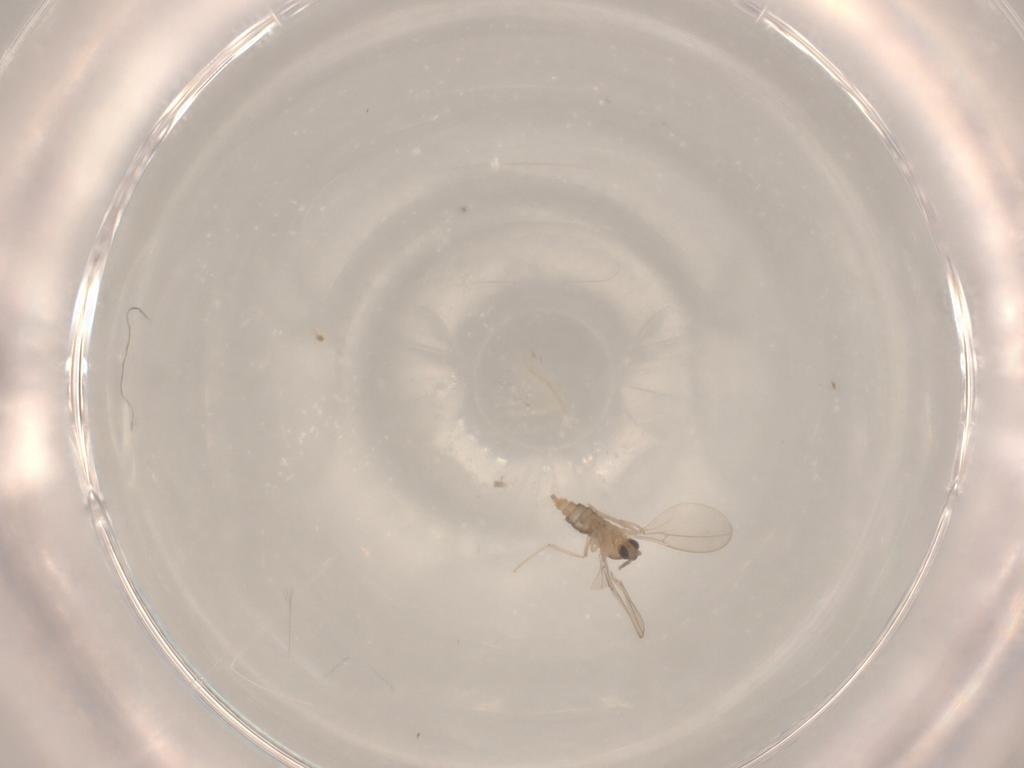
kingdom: Animalia
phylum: Arthropoda
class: Insecta
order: Diptera
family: Cecidomyiidae
